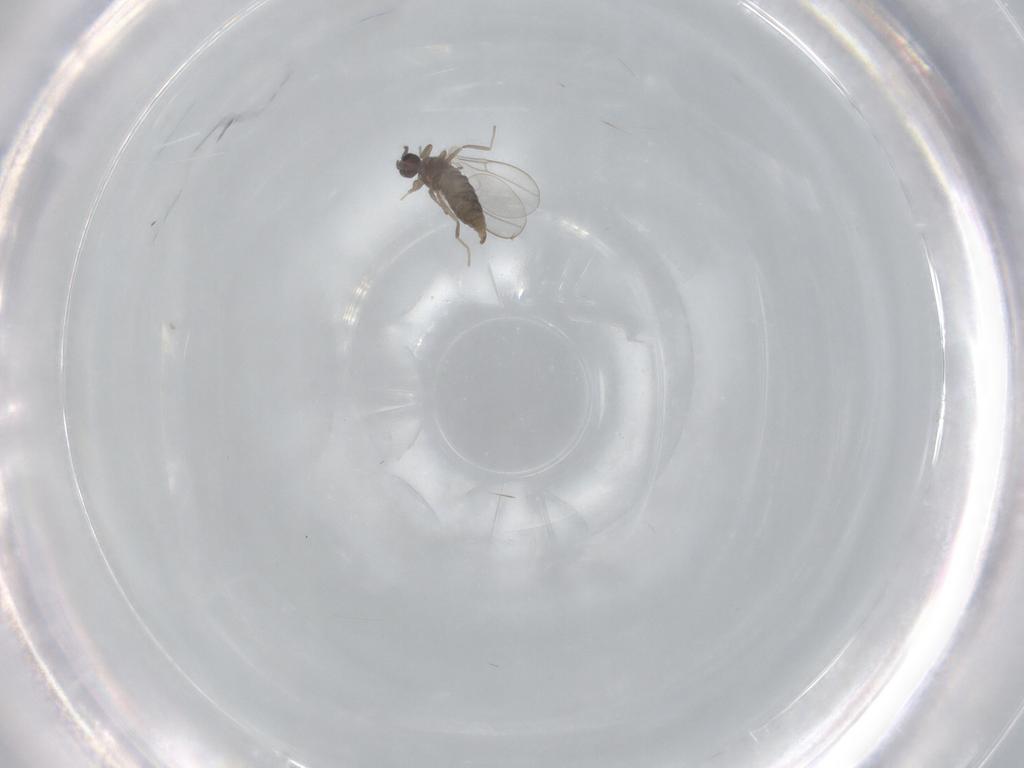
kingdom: Animalia
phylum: Arthropoda
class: Insecta
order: Diptera
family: Cecidomyiidae
